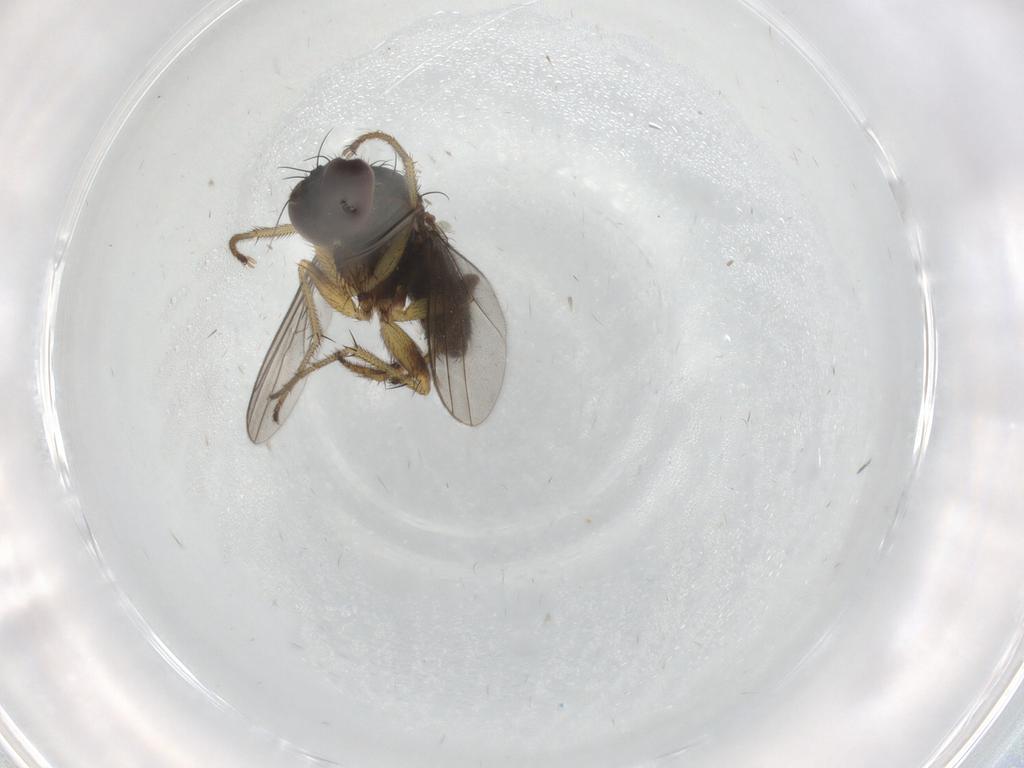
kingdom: Animalia
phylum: Arthropoda
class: Insecta
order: Diptera
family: Dolichopodidae
